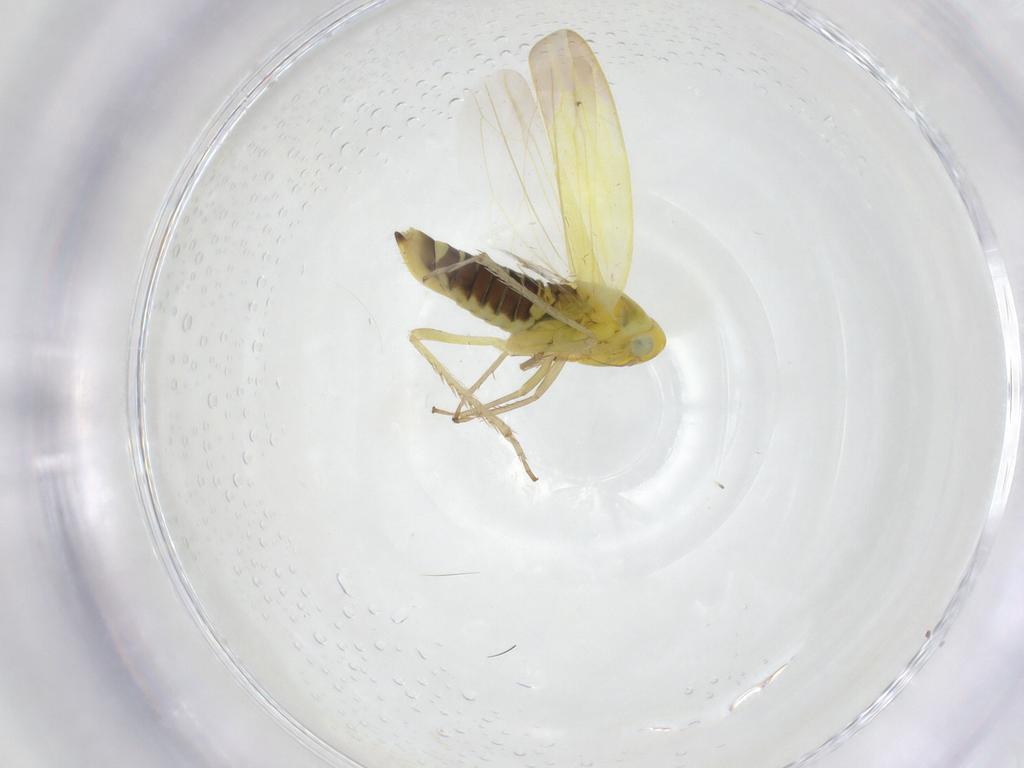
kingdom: Animalia
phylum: Arthropoda
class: Insecta
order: Hemiptera
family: Cicadellidae
